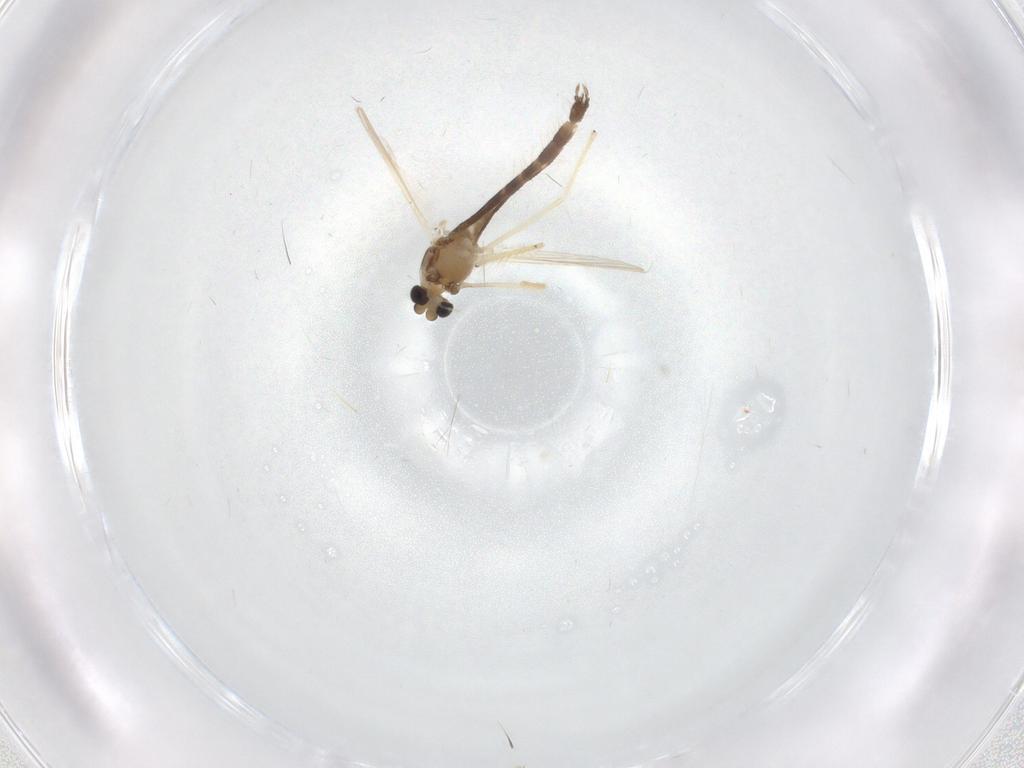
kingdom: Animalia
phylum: Arthropoda
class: Insecta
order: Diptera
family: Chironomidae
